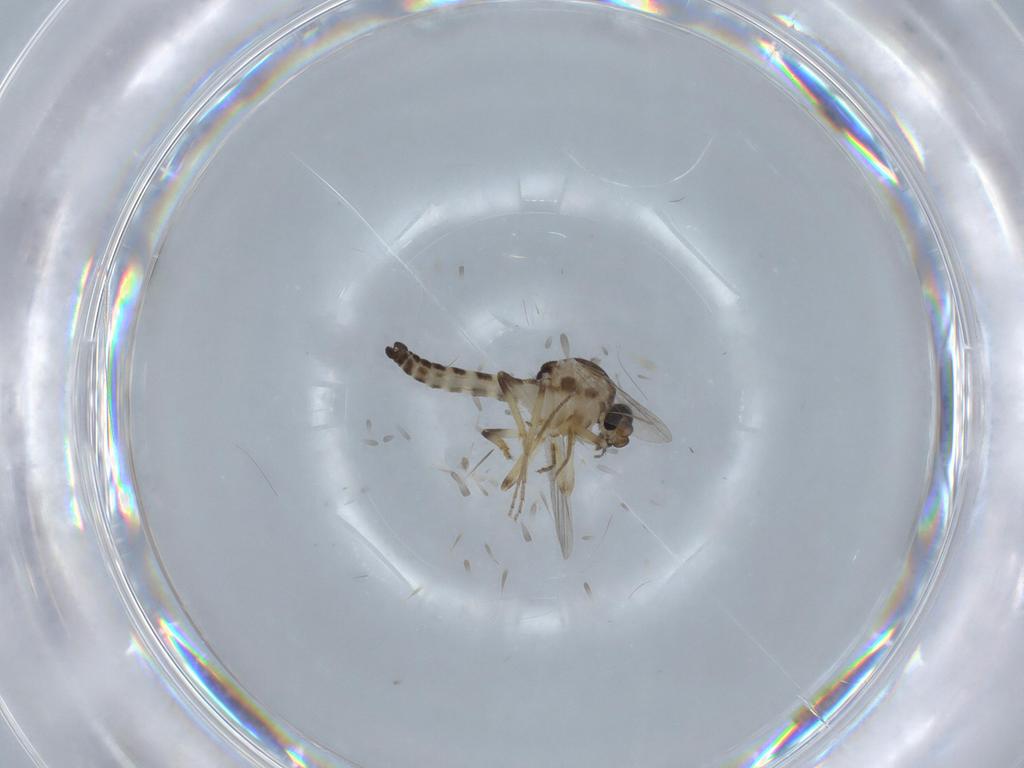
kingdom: Animalia
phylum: Arthropoda
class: Insecta
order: Diptera
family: Ceratopogonidae
